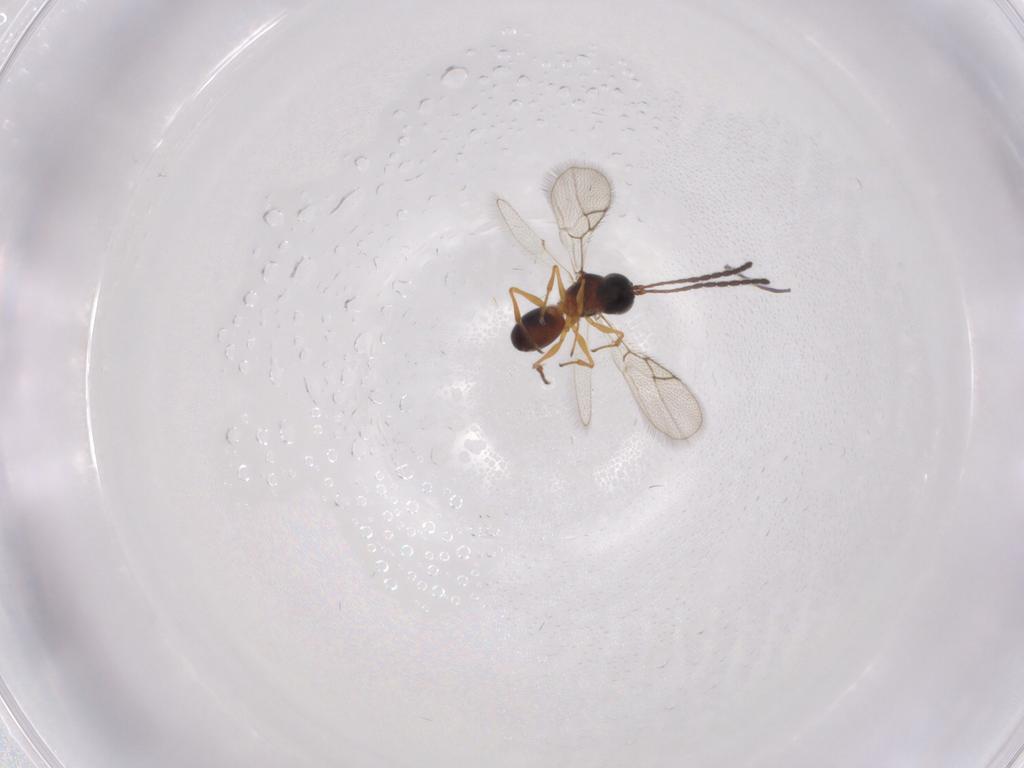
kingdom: Animalia
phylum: Arthropoda
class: Insecta
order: Hymenoptera
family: Figitidae
